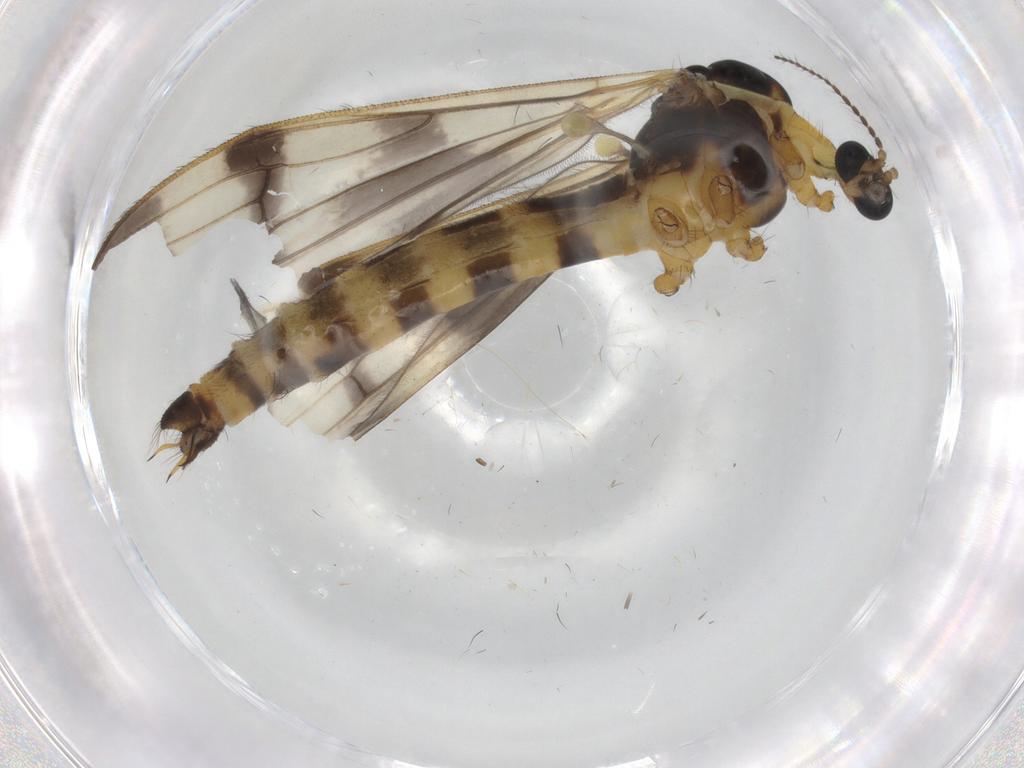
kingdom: Animalia
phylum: Arthropoda
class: Insecta
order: Diptera
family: Limoniidae
